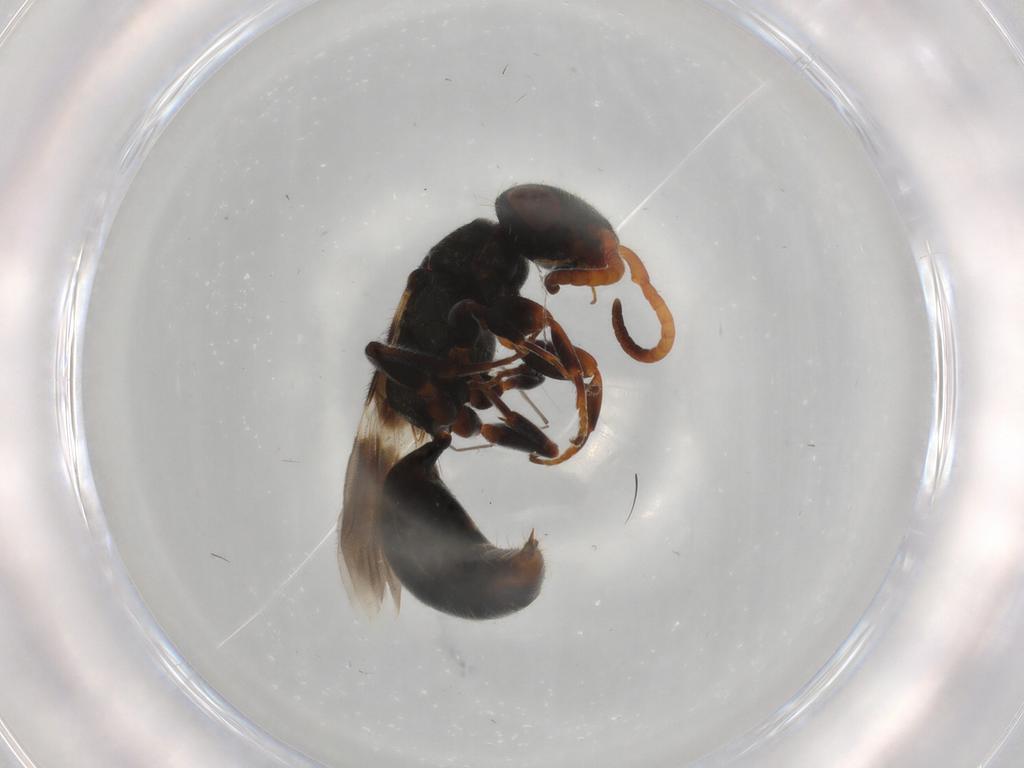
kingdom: Animalia
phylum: Arthropoda
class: Insecta
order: Hymenoptera
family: Bethylidae
